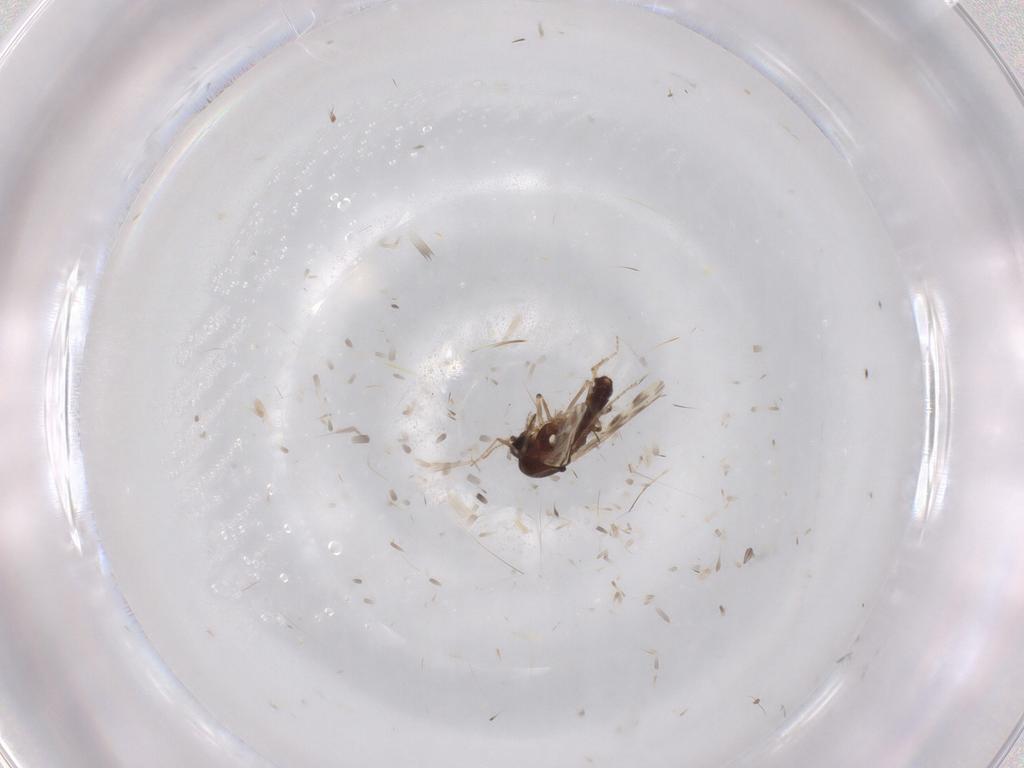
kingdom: Animalia
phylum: Arthropoda
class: Insecta
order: Diptera
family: Ceratopogonidae
